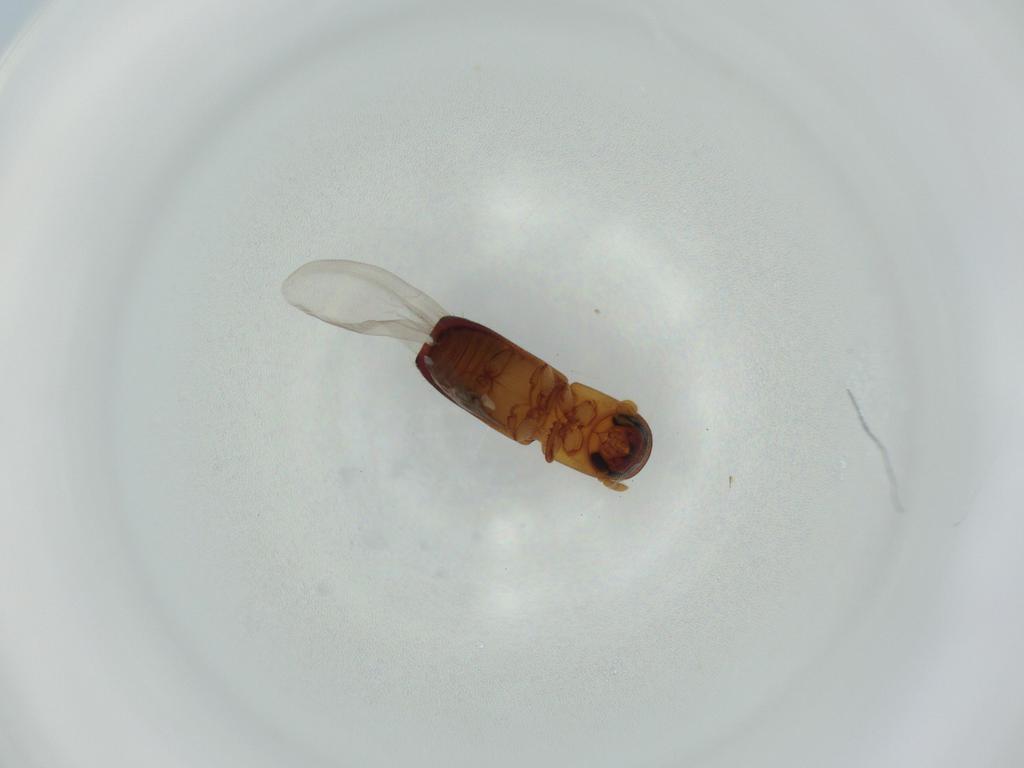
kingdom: Animalia
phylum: Arthropoda
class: Insecta
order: Coleoptera
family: Curculionidae
